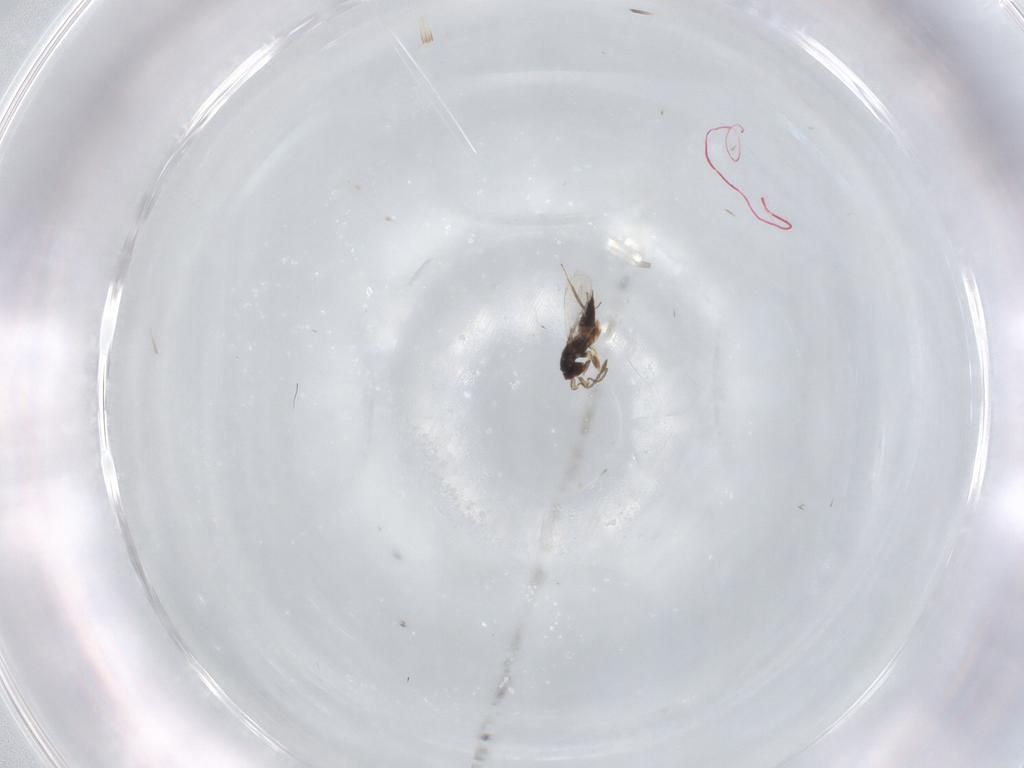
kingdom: Animalia
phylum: Arthropoda
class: Insecta
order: Hymenoptera
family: Mymaridae
